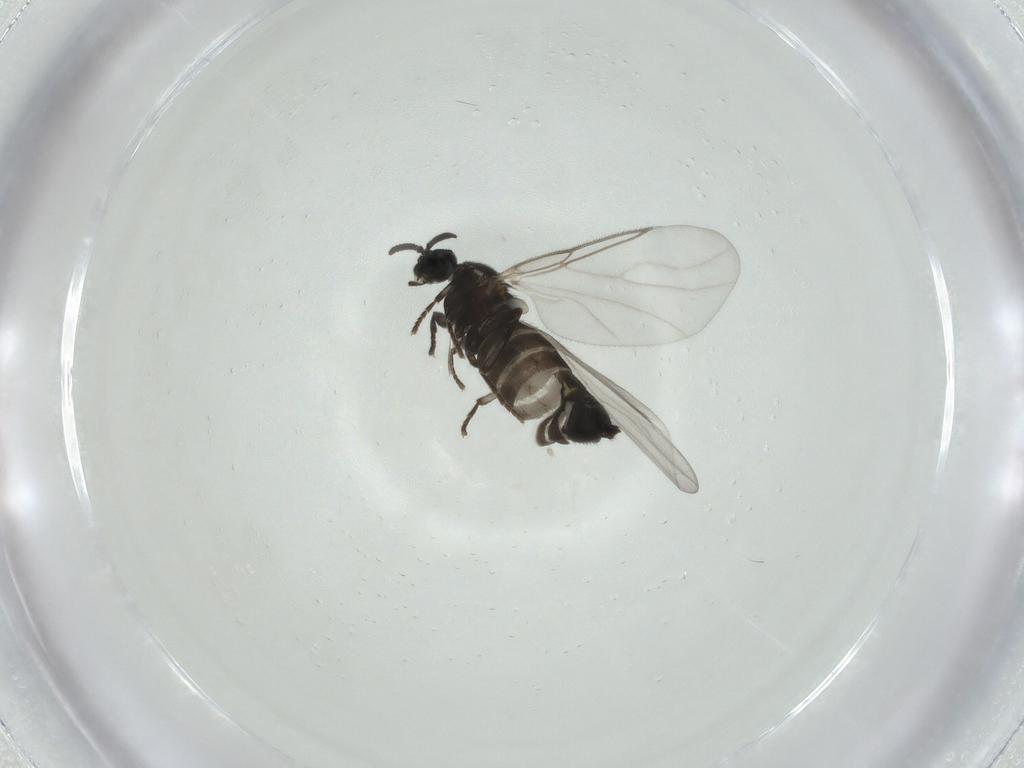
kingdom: Animalia
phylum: Arthropoda
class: Insecta
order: Diptera
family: Scatopsidae
